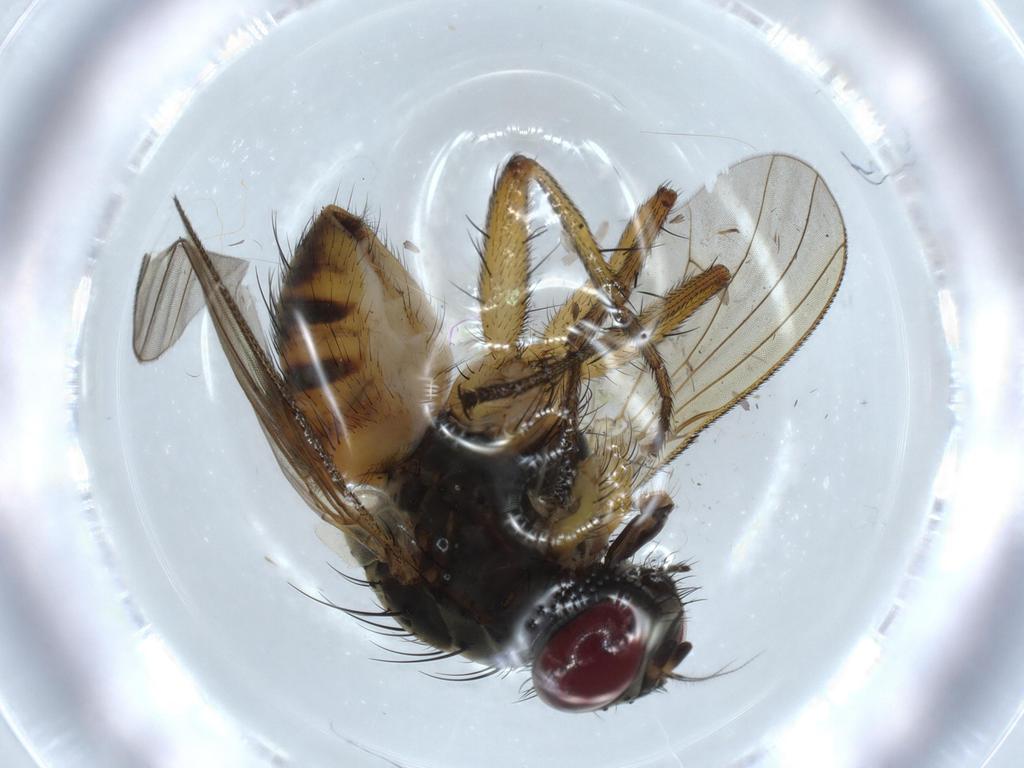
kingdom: Animalia
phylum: Arthropoda
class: Insecta
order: Diptera
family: Muscidae
